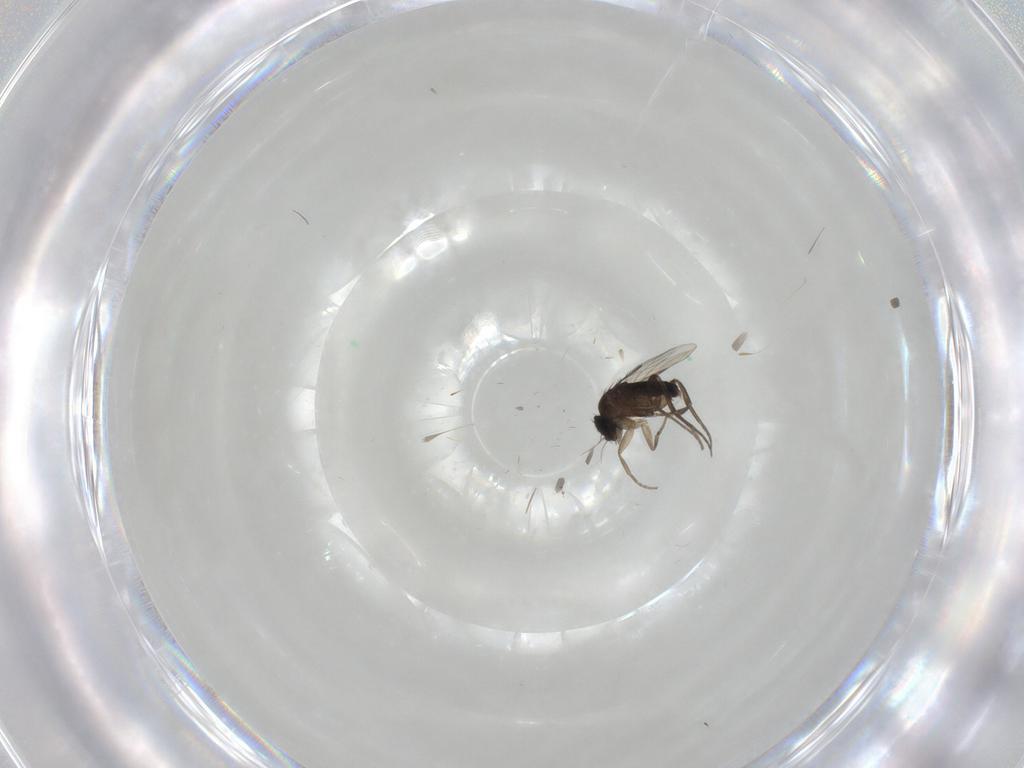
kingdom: Animalia
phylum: Arthropoda
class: Insecta
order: Diptera
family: Phoridae
